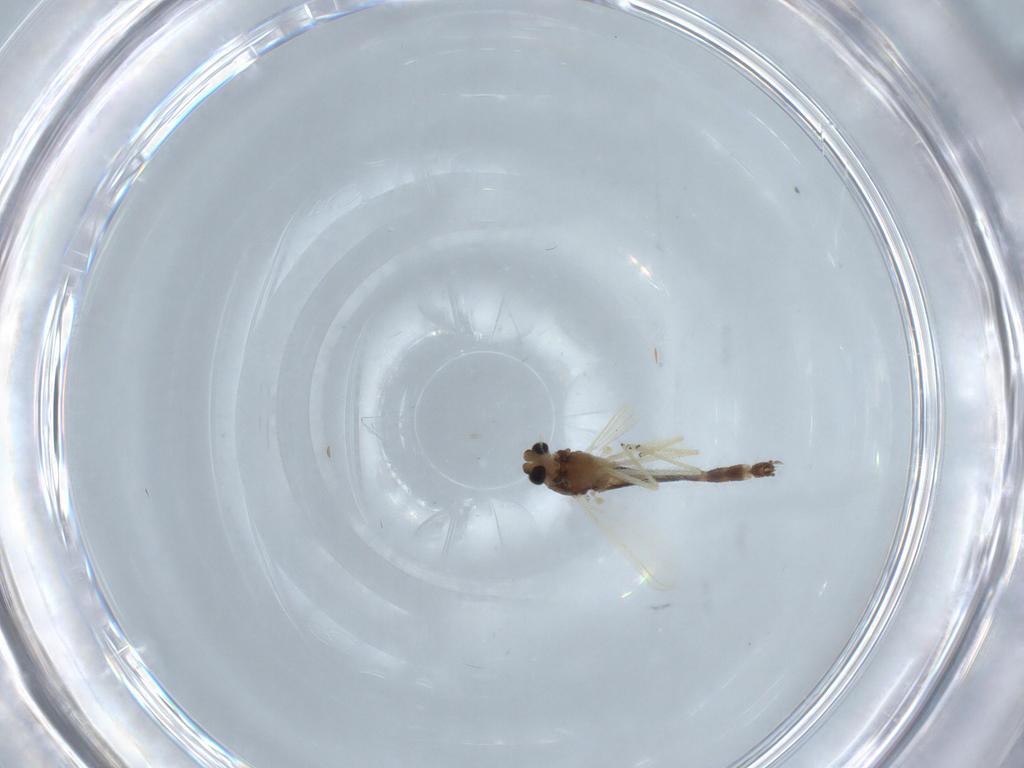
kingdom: Animalia
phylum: Arthropoda
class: Insecta
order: Diptera
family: Chironomidae
